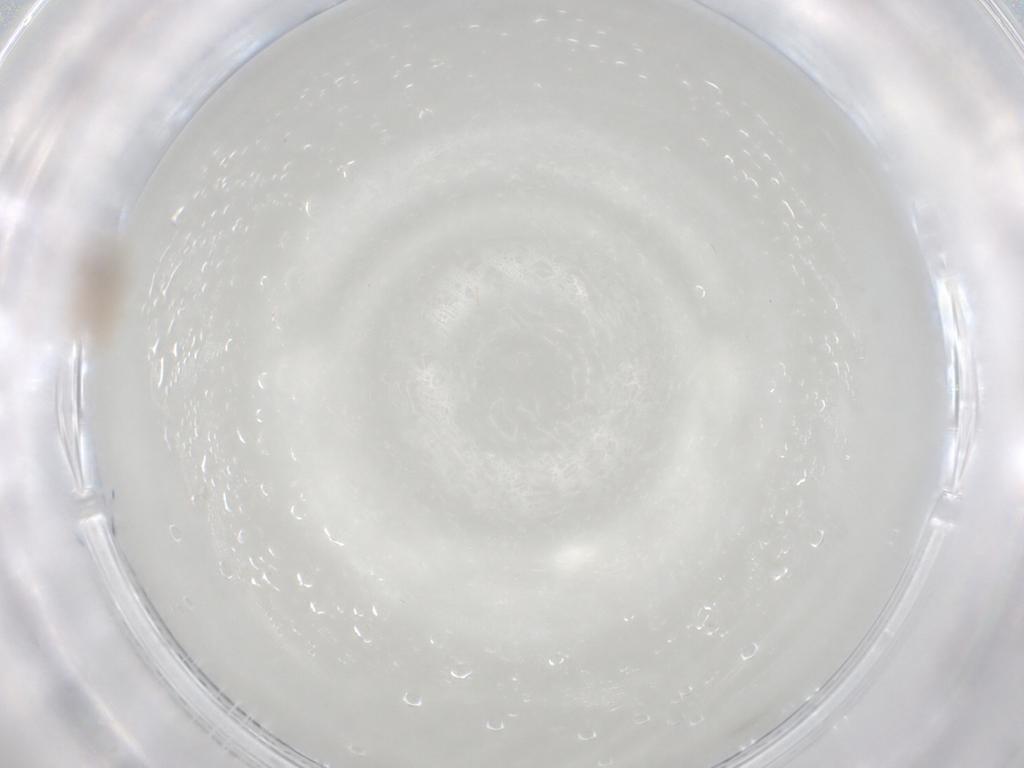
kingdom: Animalia
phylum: Arthropoda
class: Collembola
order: Entomobryomorpha
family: Entomobryidae
